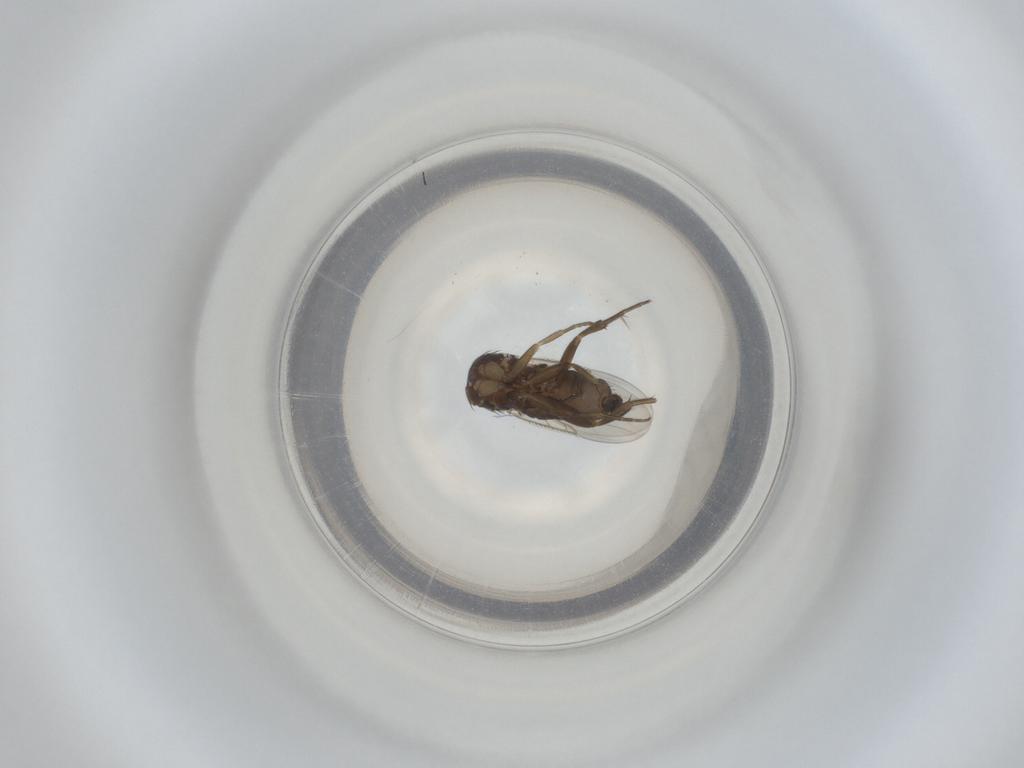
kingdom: Animalia
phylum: Arthropoda
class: Insecta
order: Diptera
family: Phoridae
